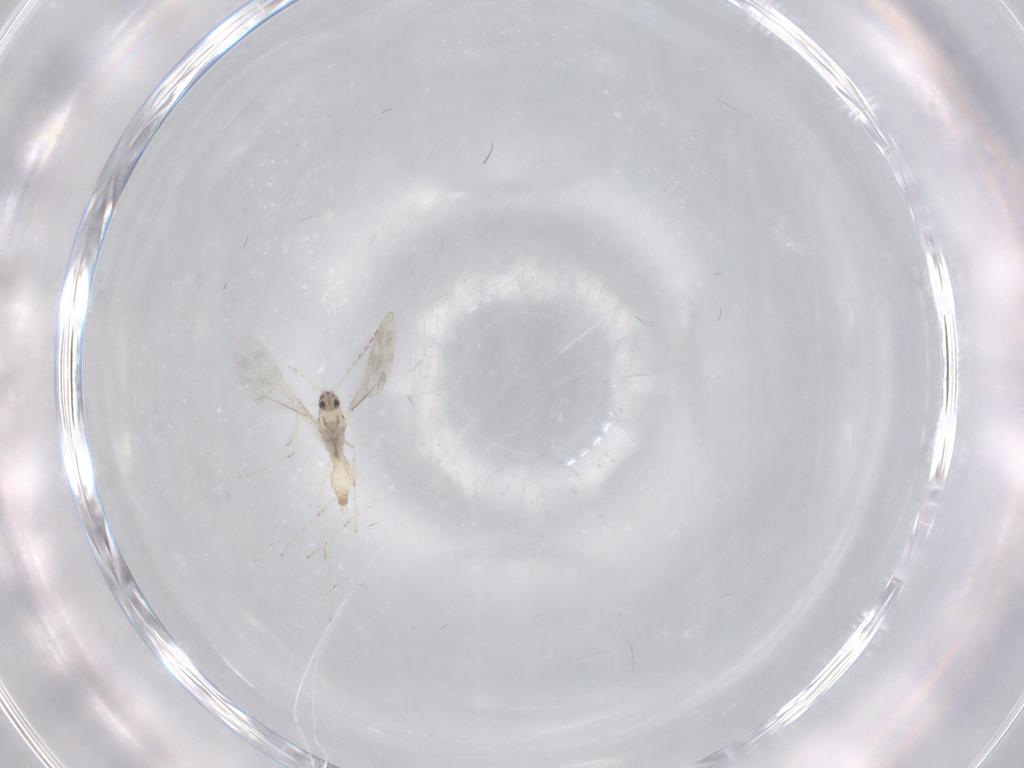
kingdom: Animalia
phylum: Arthropoda
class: Insecta
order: Diptera
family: Cecidomyiidae
